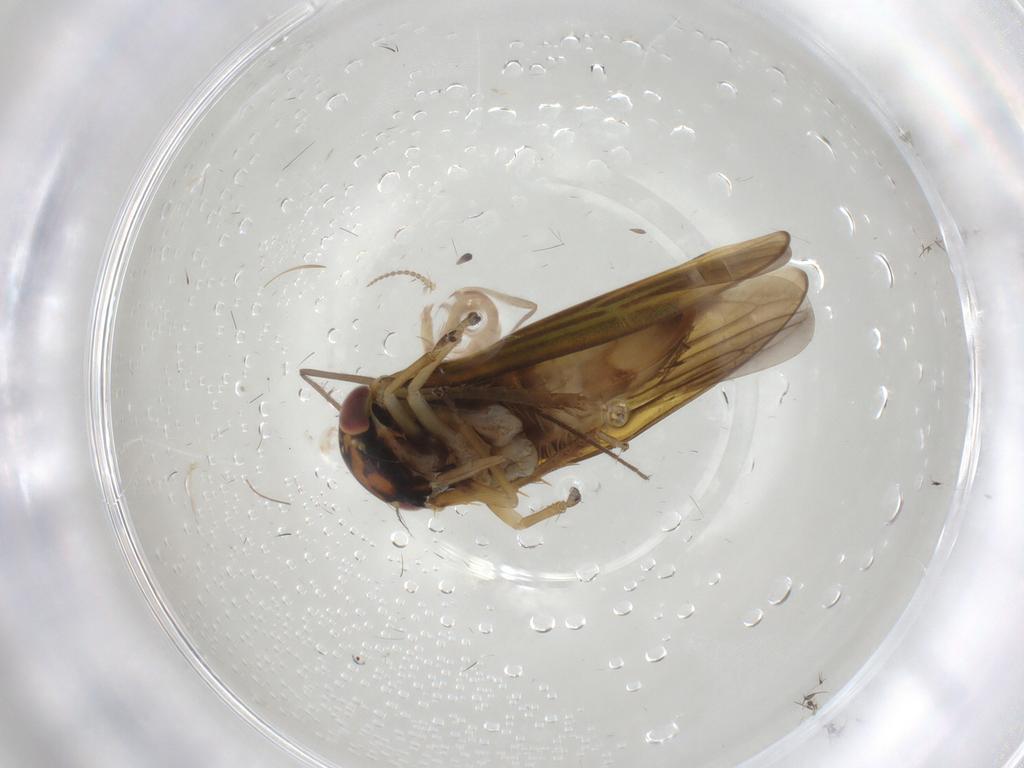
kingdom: Animalia
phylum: Arthropoda
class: Insecta
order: Hemiptera
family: Cicadellidae
